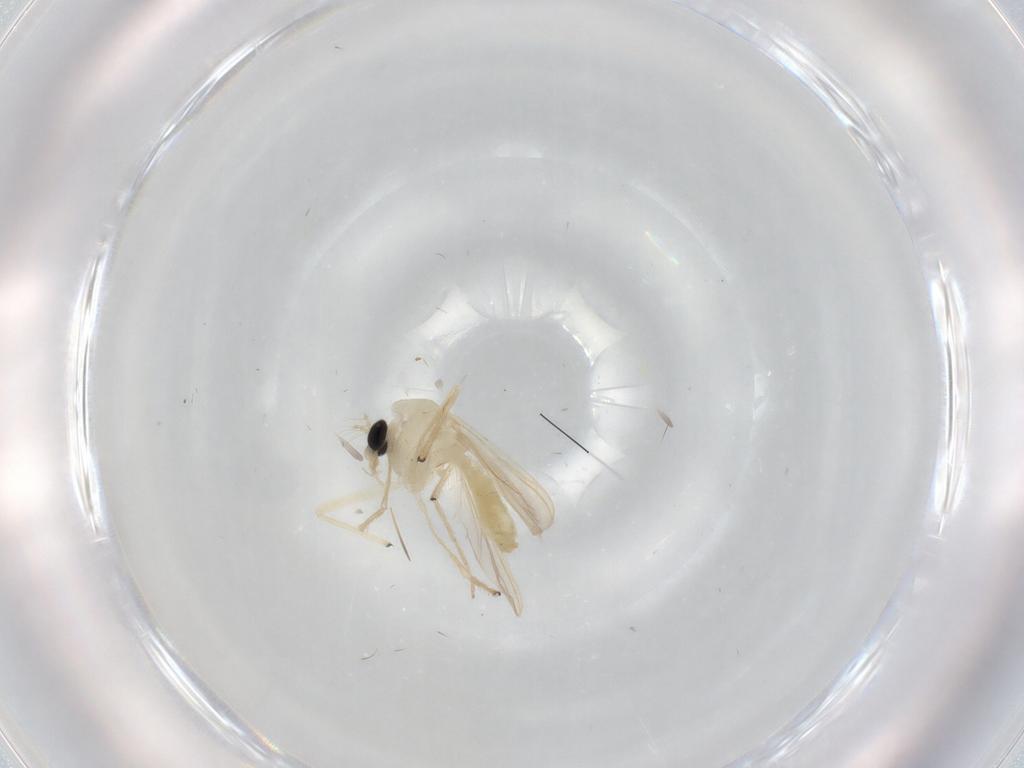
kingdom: Animalia
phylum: Arthropoda
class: Insecta
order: Diptera
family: Chironomidae
